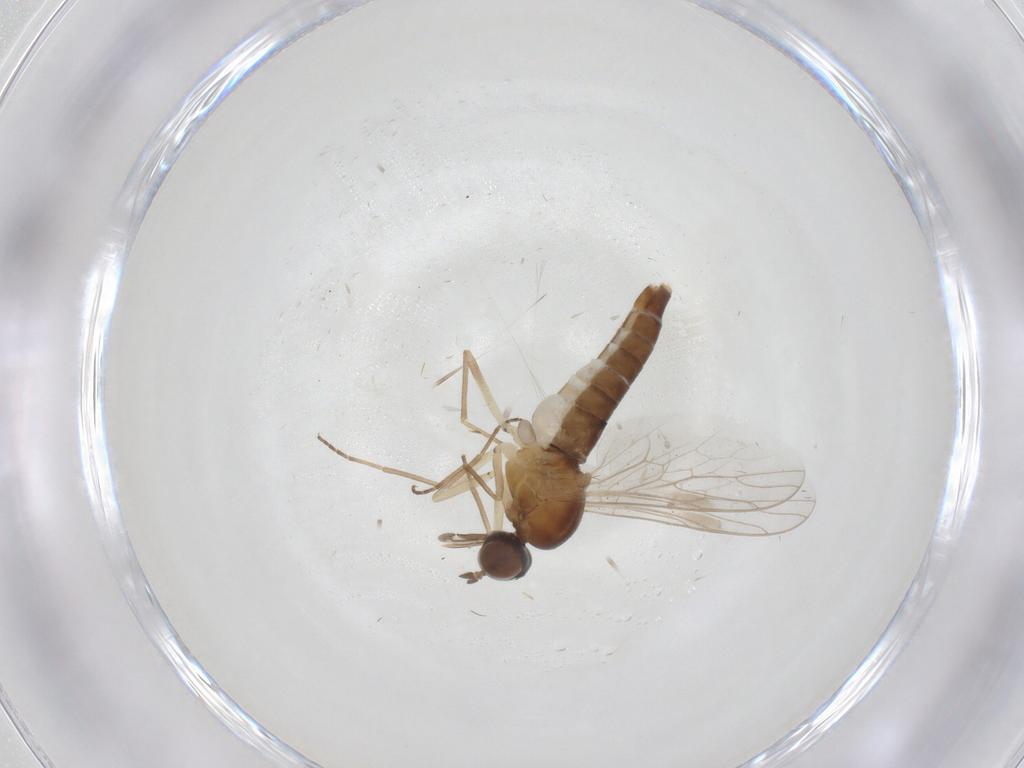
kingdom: Animalia
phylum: Arthropoda
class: Insecta
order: Diptera
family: Scenopinidae
